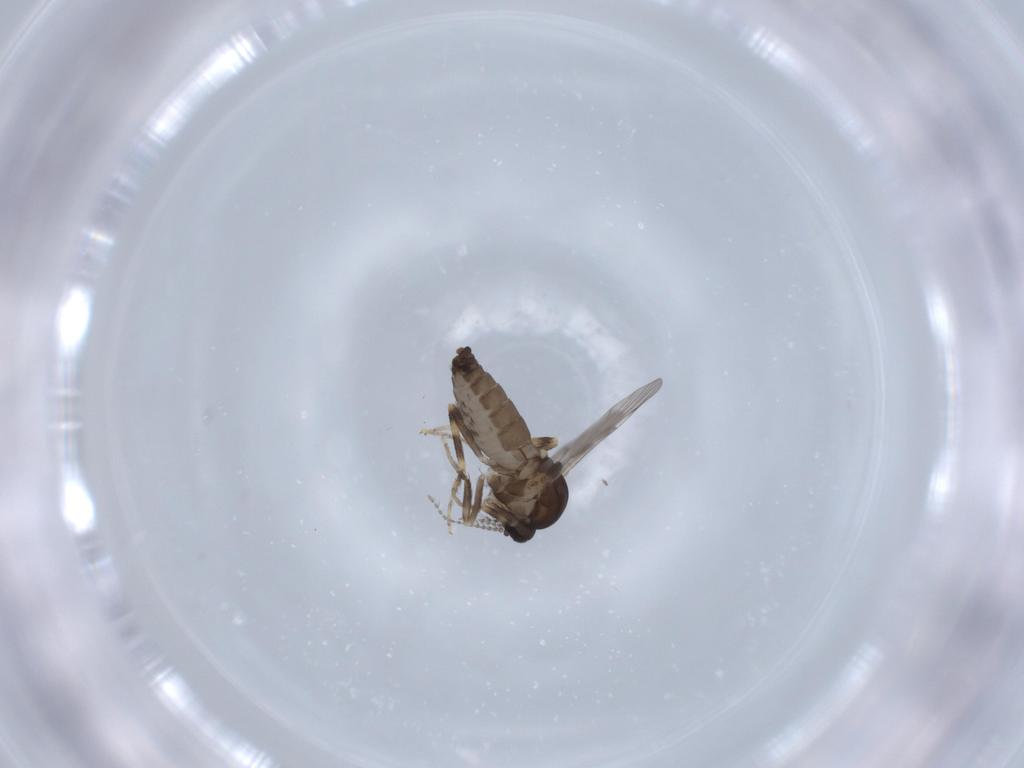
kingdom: Animalia
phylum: Arthropoda
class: Insecta
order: Diptera
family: Ceratopogonidae
